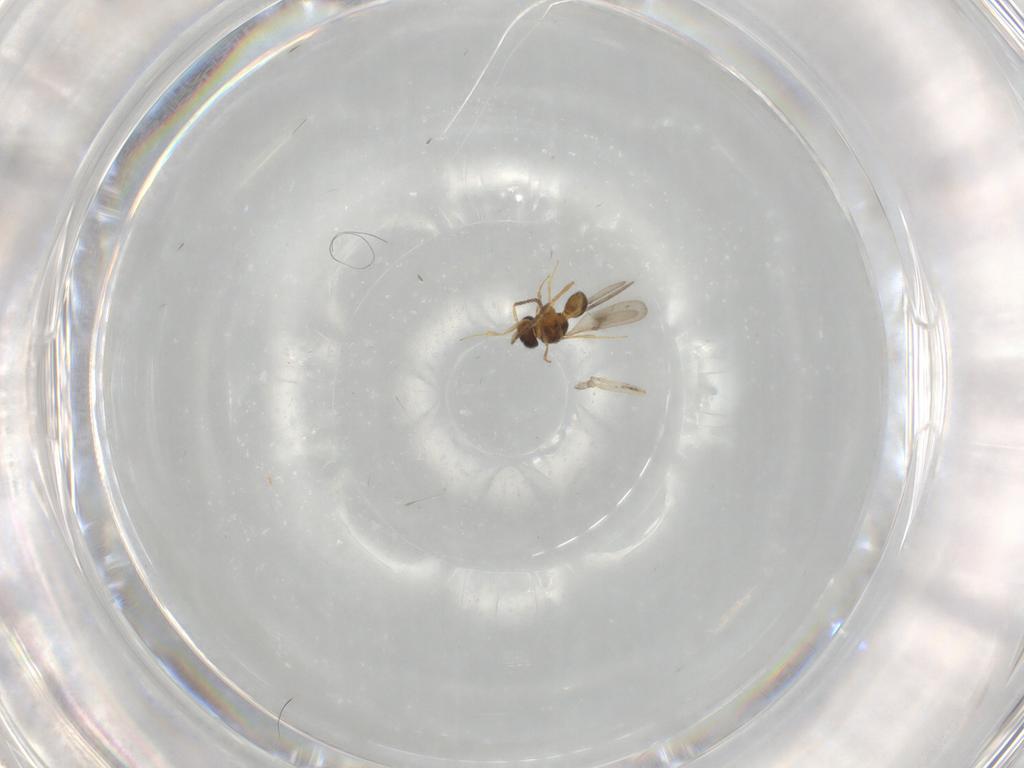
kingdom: Animalia
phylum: Arthropoda
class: Insecta
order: Hymenoptera
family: Scelionidae
